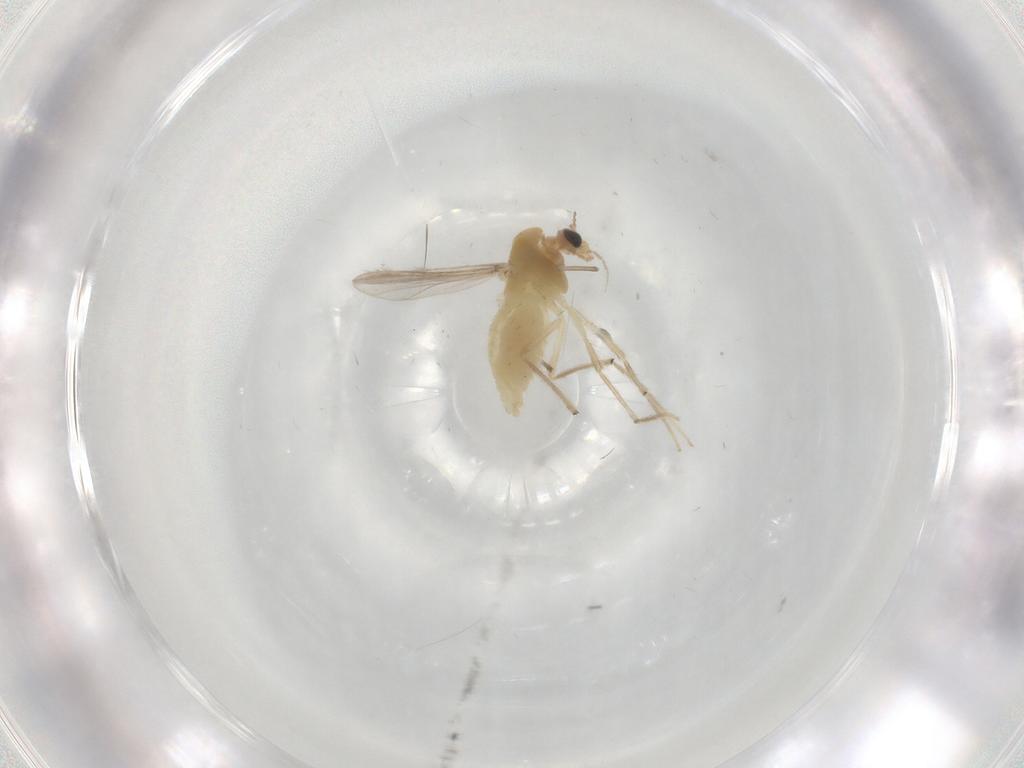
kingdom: Animalia
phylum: Arthropoda
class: Insecta
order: Diptera
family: Chironomidae
